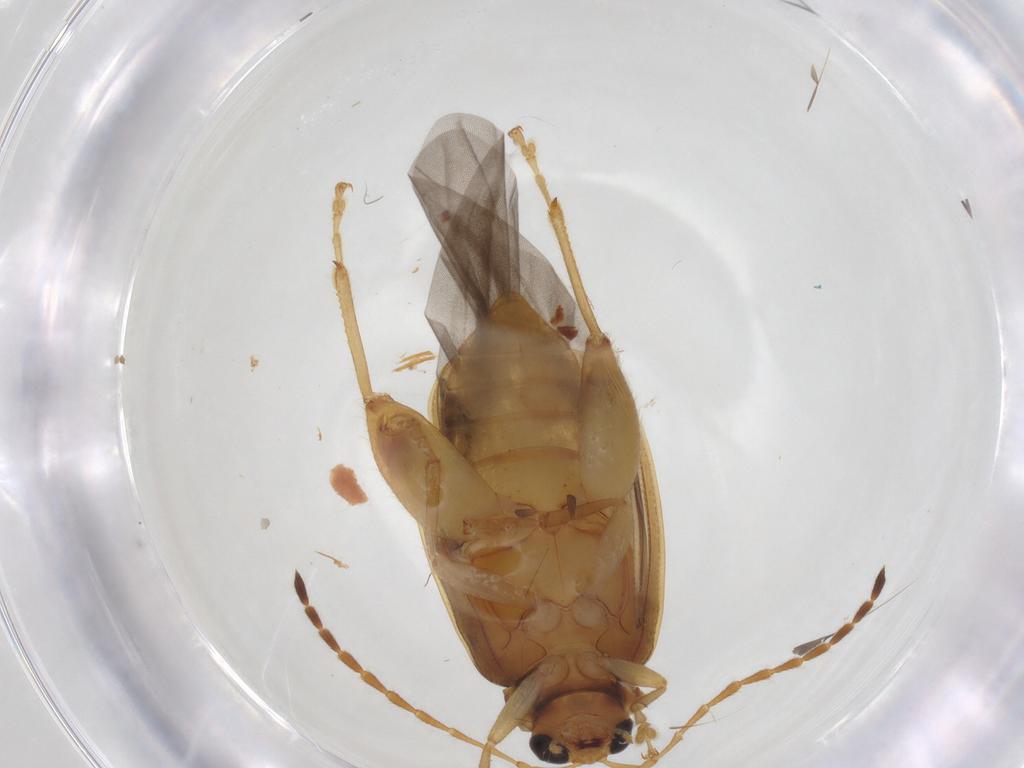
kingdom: Animalia
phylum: Arthropoda
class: Insecta
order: Coleoptera
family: Chrysomelidae
